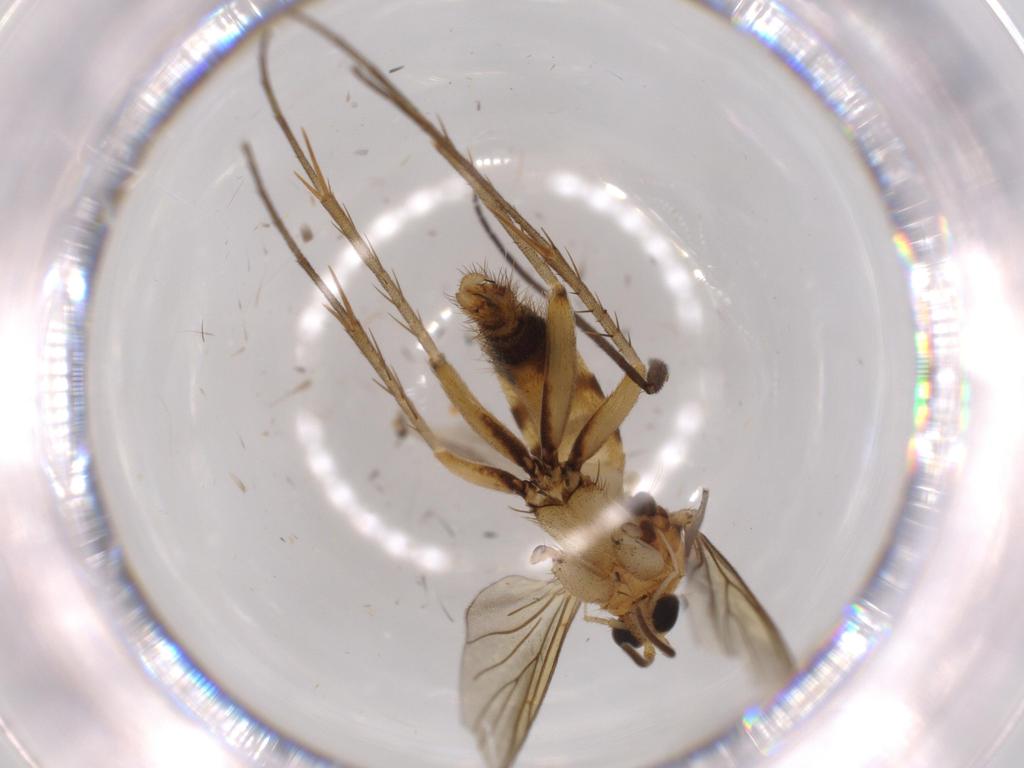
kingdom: Animalia
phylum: Arthropoda
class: Insecta
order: Diptera
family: Mycetophilidae
